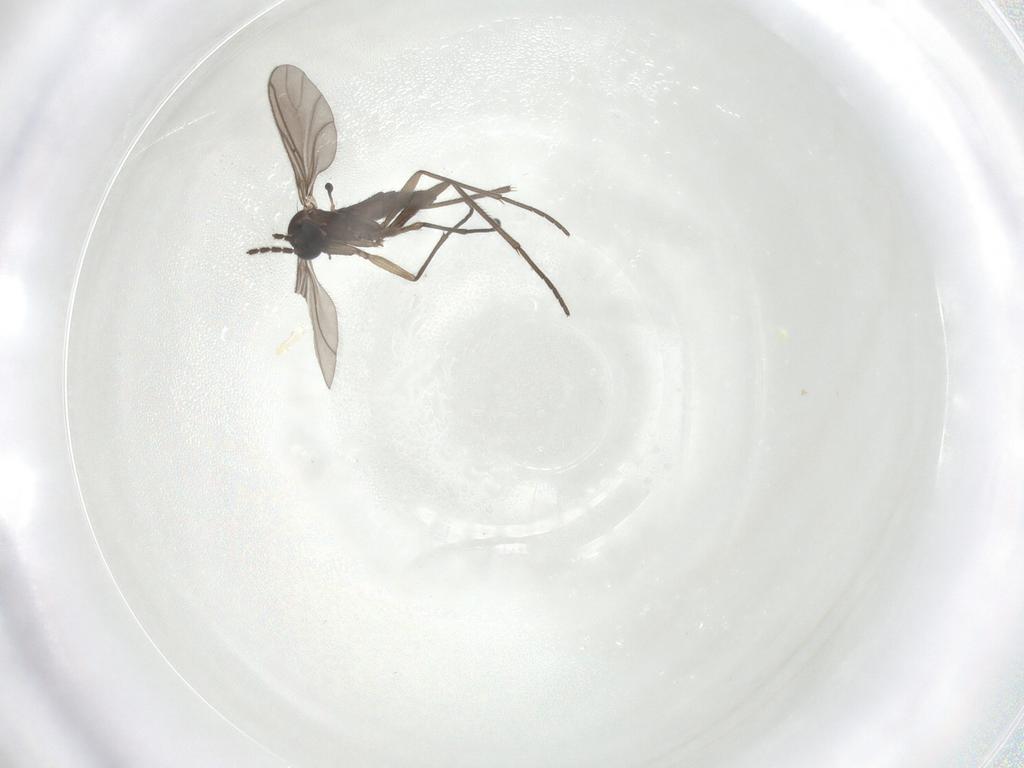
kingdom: Animalia
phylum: Arthropoda
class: Insecta
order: Diptera
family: Sciaridae
